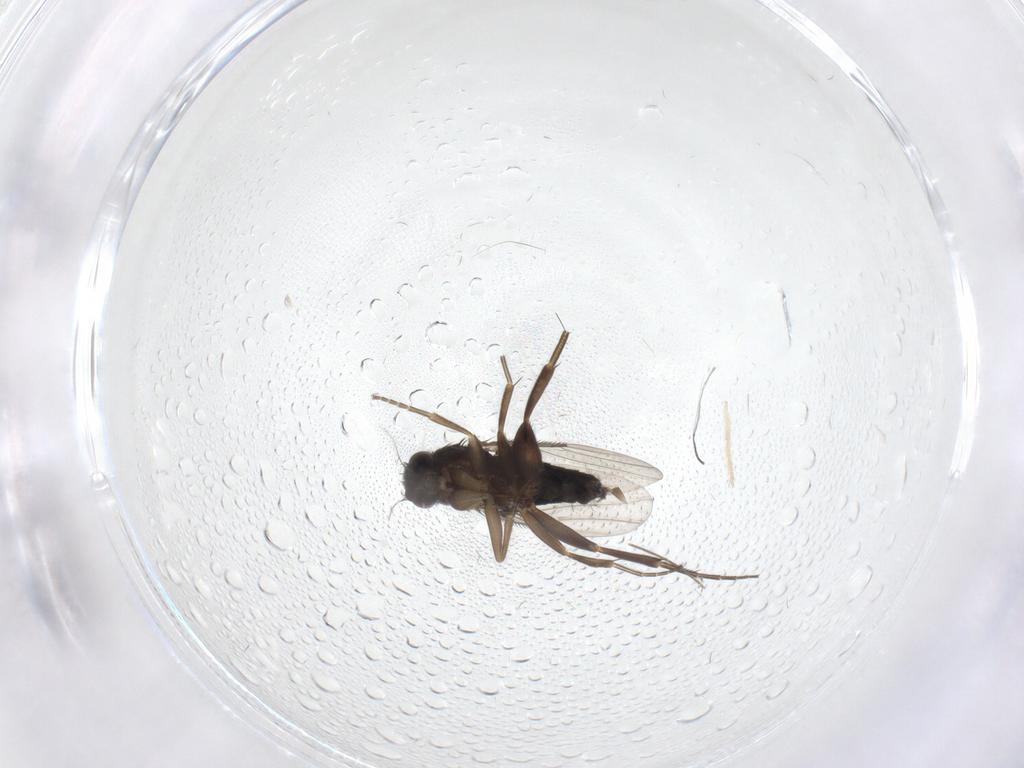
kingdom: Animalia
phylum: Arthropoda
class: Insecta
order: Diptera
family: Phoridae
